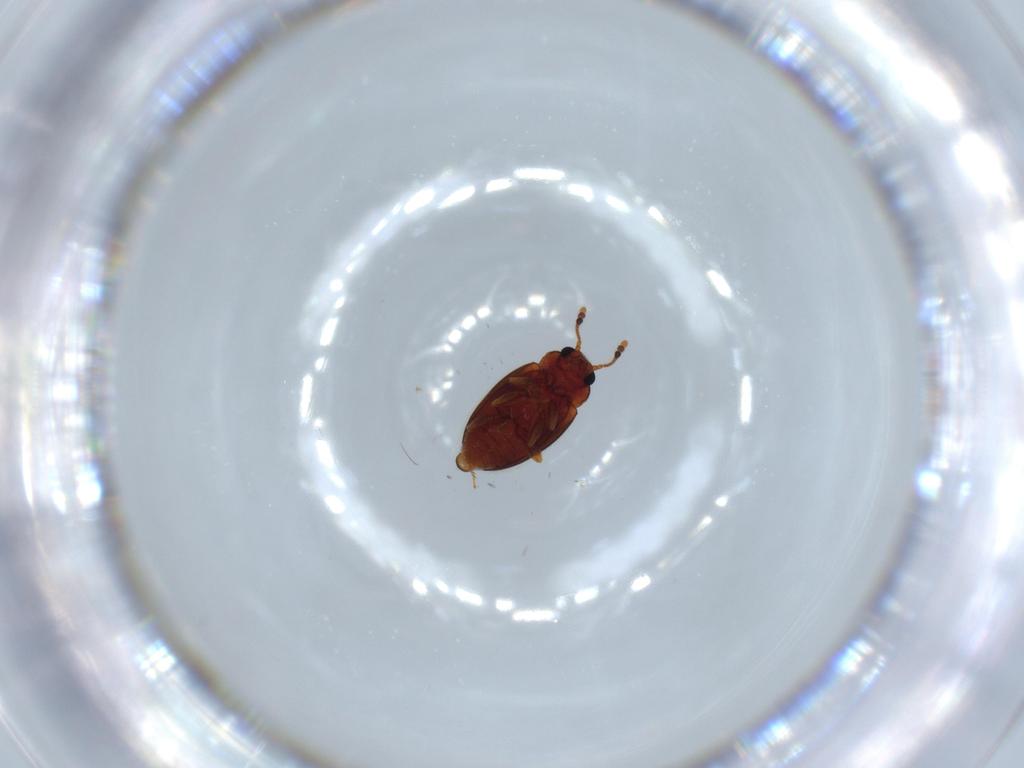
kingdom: Animalia
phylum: Arthropoda
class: Insecta
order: Coleoptera
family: Erotylidae
